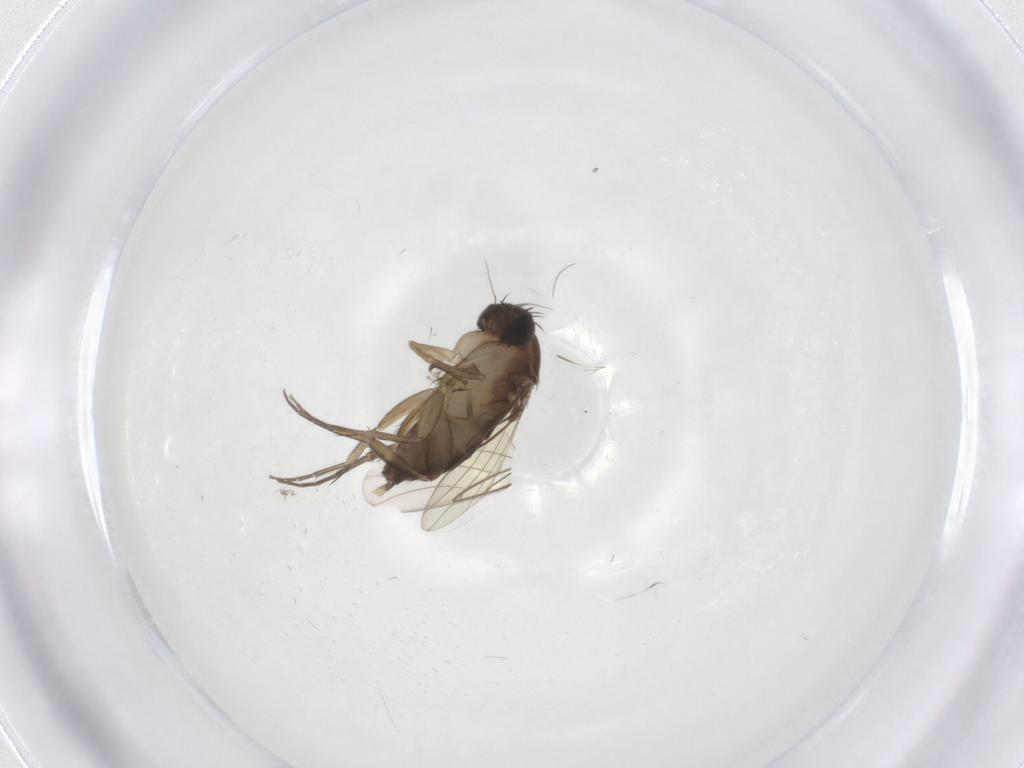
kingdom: Animalia
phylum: Arthropoda
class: Insecta
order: Diptera
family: Phoridae
